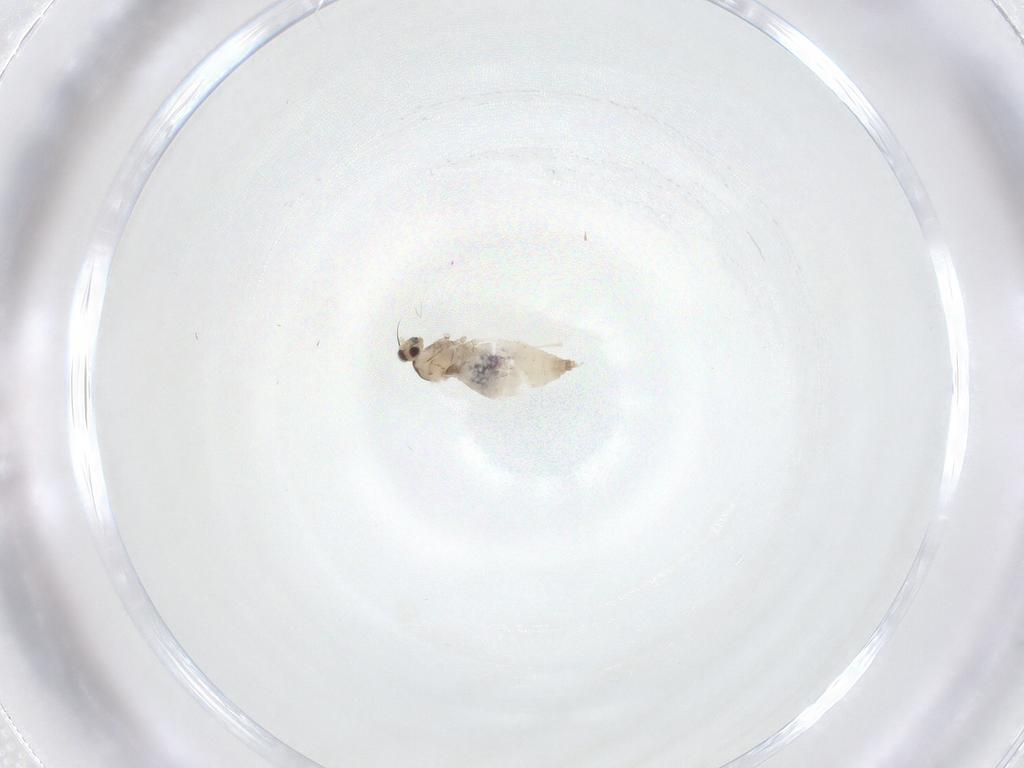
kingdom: Animalia
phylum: Arthropoda
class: Insecta
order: Diptera
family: Cecidomyiidae
